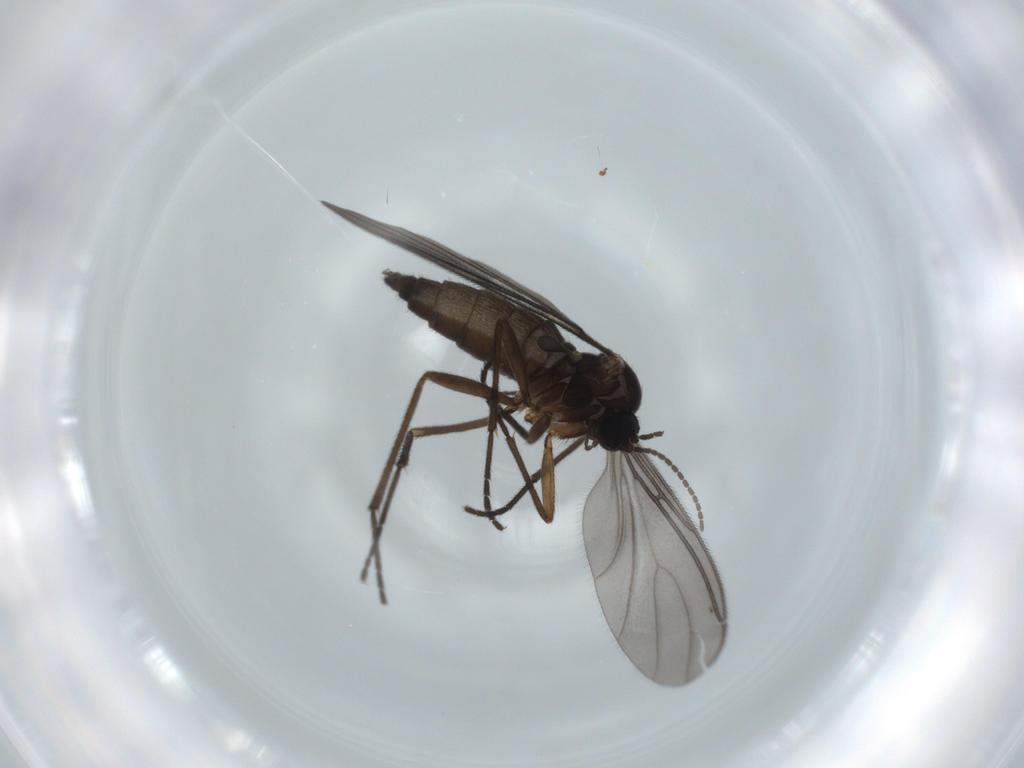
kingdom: Animalia
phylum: Arthropoda
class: Insecta
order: Diptera
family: Sciaridae
